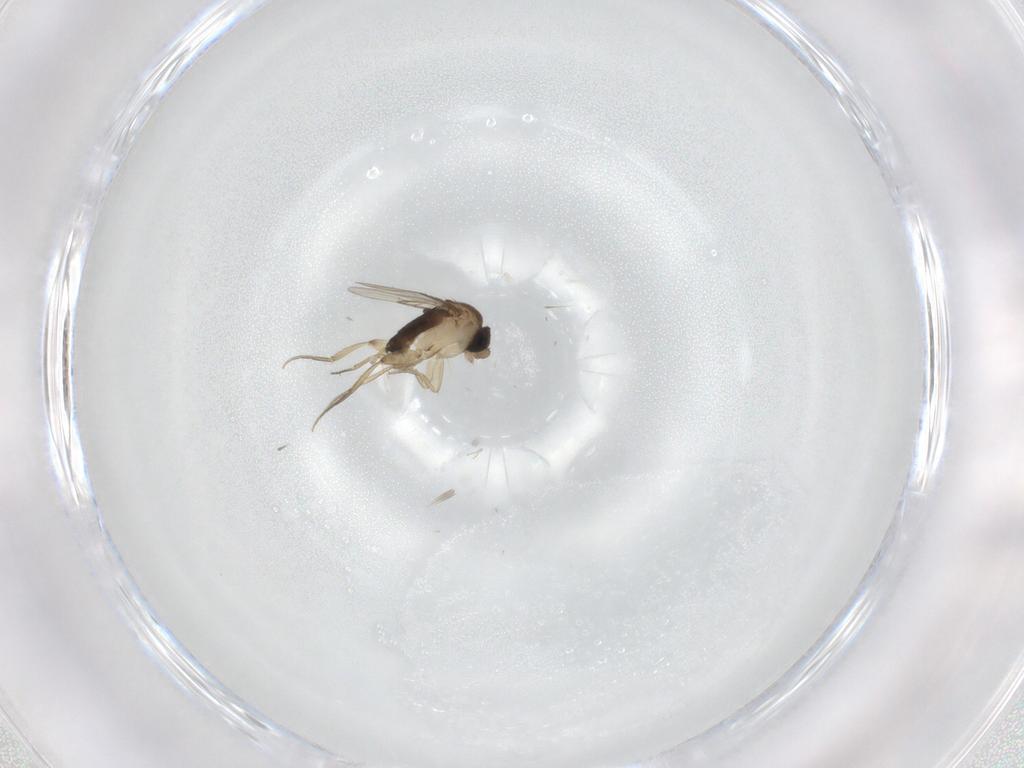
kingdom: Animalia
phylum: Arthropoda
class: Insecta
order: Diptera
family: Phoridae
